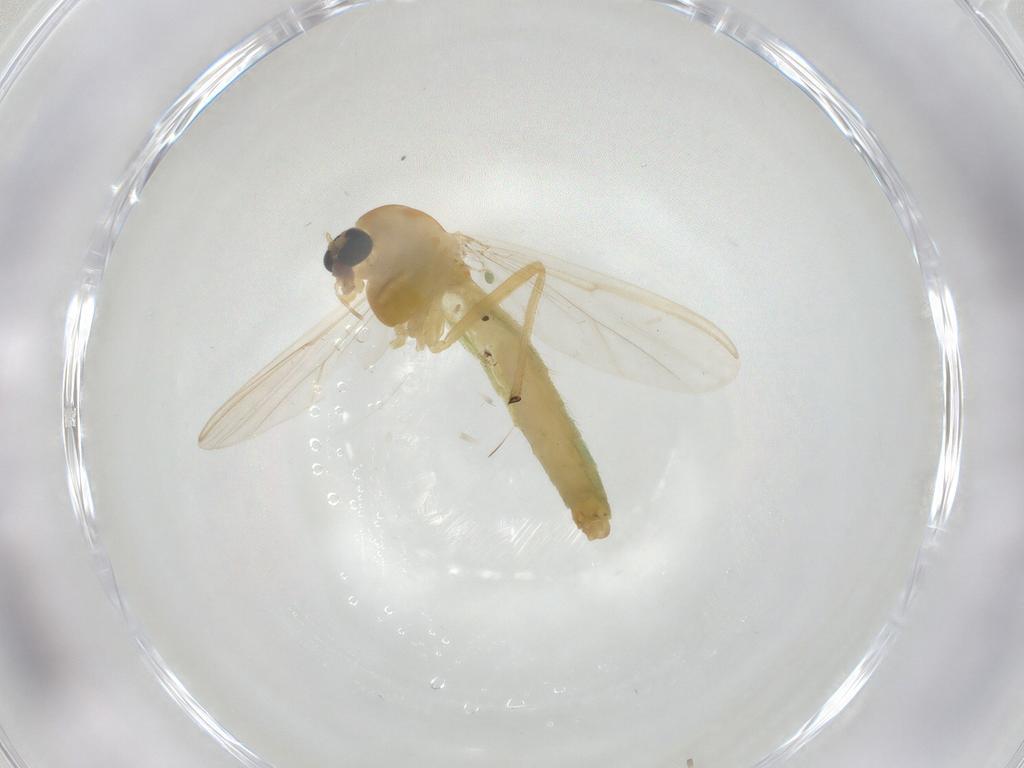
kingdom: Animalia
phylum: Arthropoda
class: Insecta
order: Diptera
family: Chironomidae
